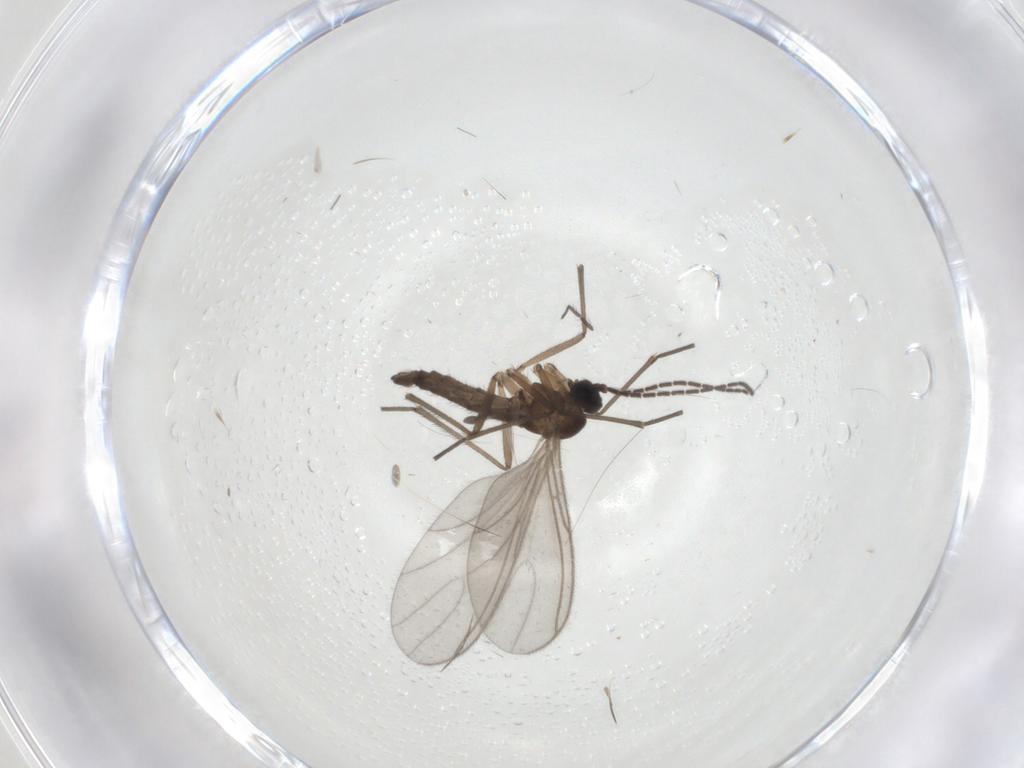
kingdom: Animalia
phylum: Arthropoda
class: Insecta
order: Diptera
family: Sciaridae
